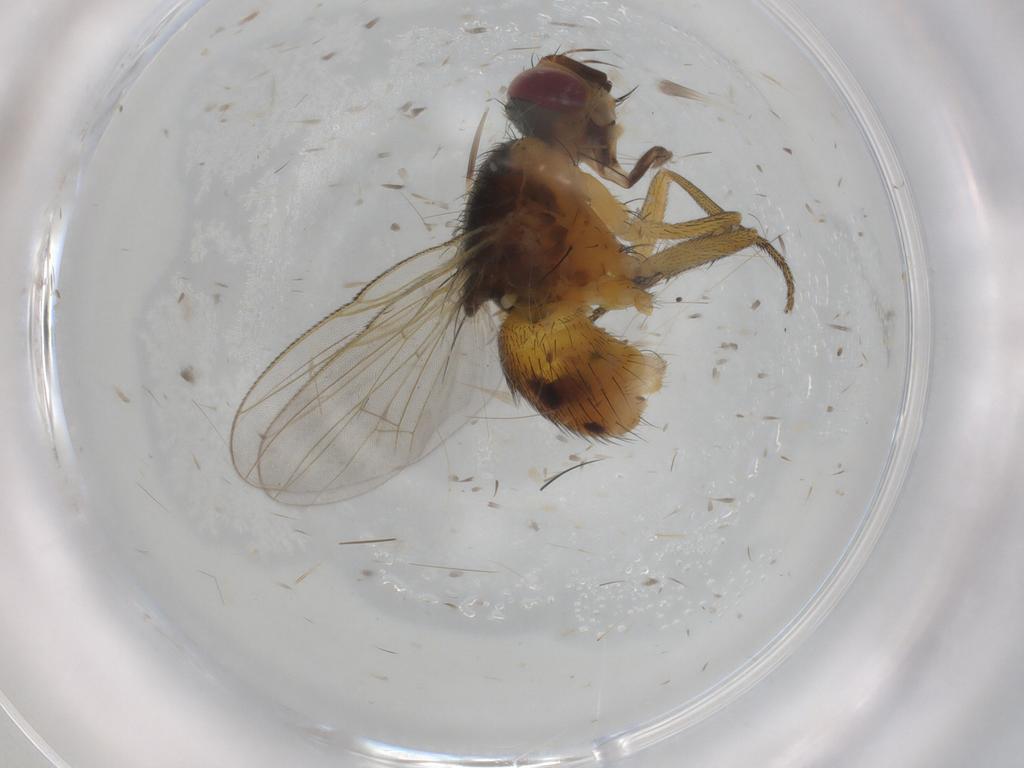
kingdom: Animalia
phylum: Arthropoda
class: Insecta
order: Diptera
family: Muscidae
